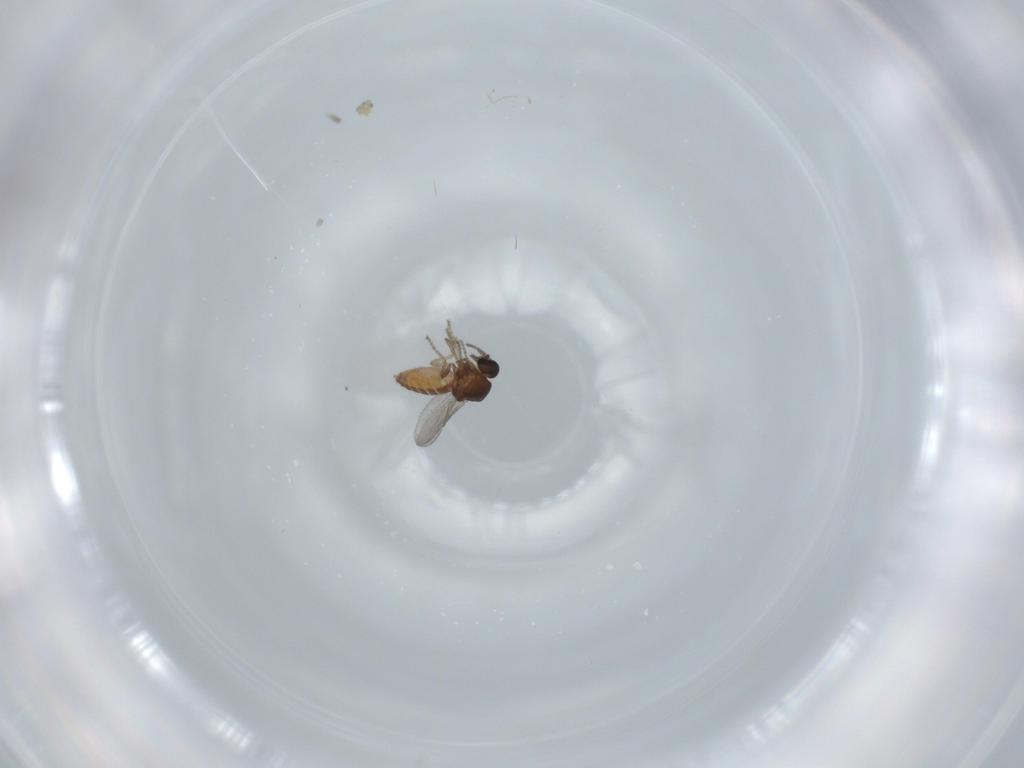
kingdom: Animalia
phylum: Arthropoda
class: Insecta
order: Diptera
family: Ceratopogonidae
